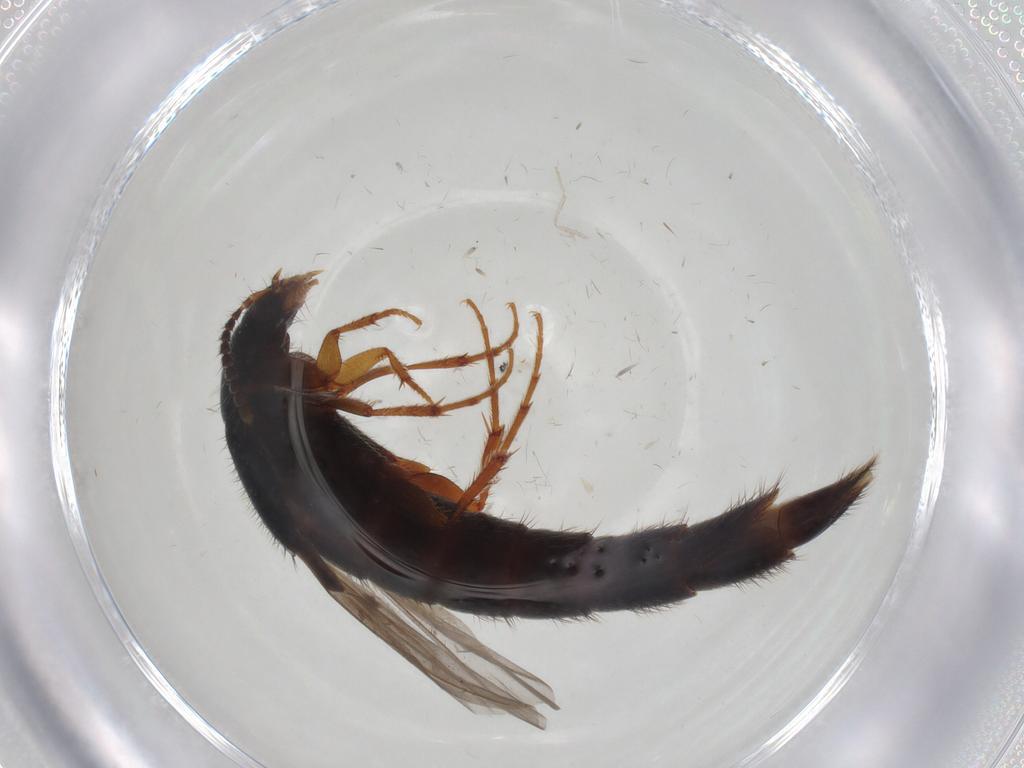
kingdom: Animalia
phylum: Arthropoda
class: Insecta
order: Coleoptera
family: Staphylinidae
